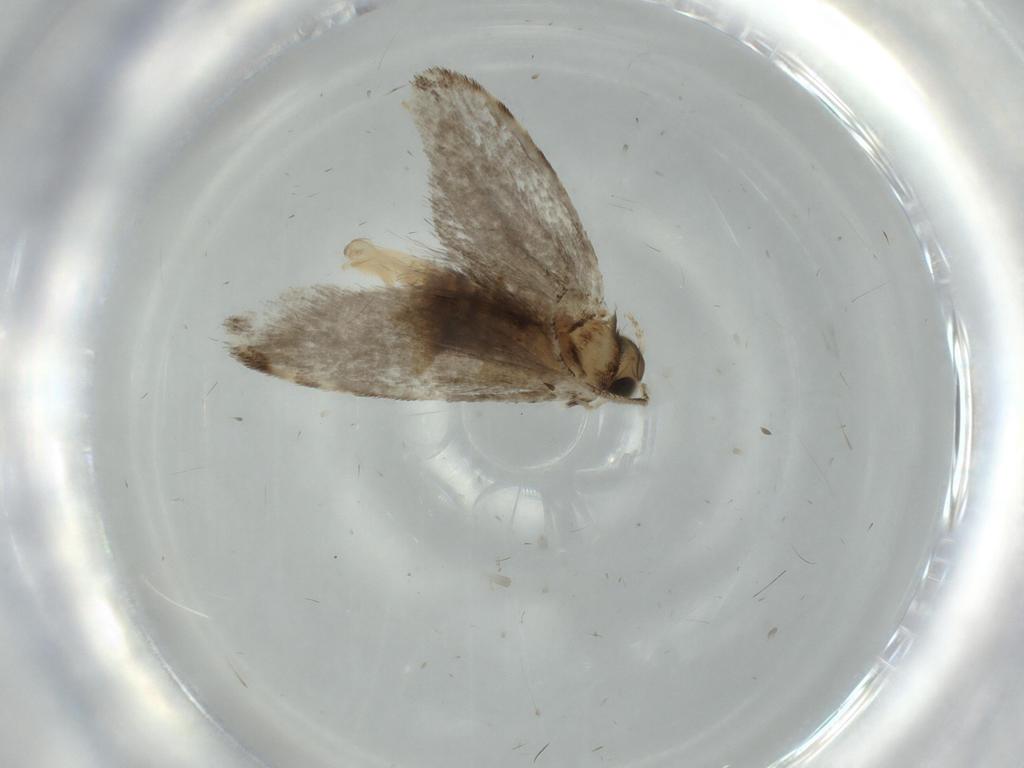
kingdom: Animalia
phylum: Arthropoda
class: Insecta
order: Lepidoptera
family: Tineidae
